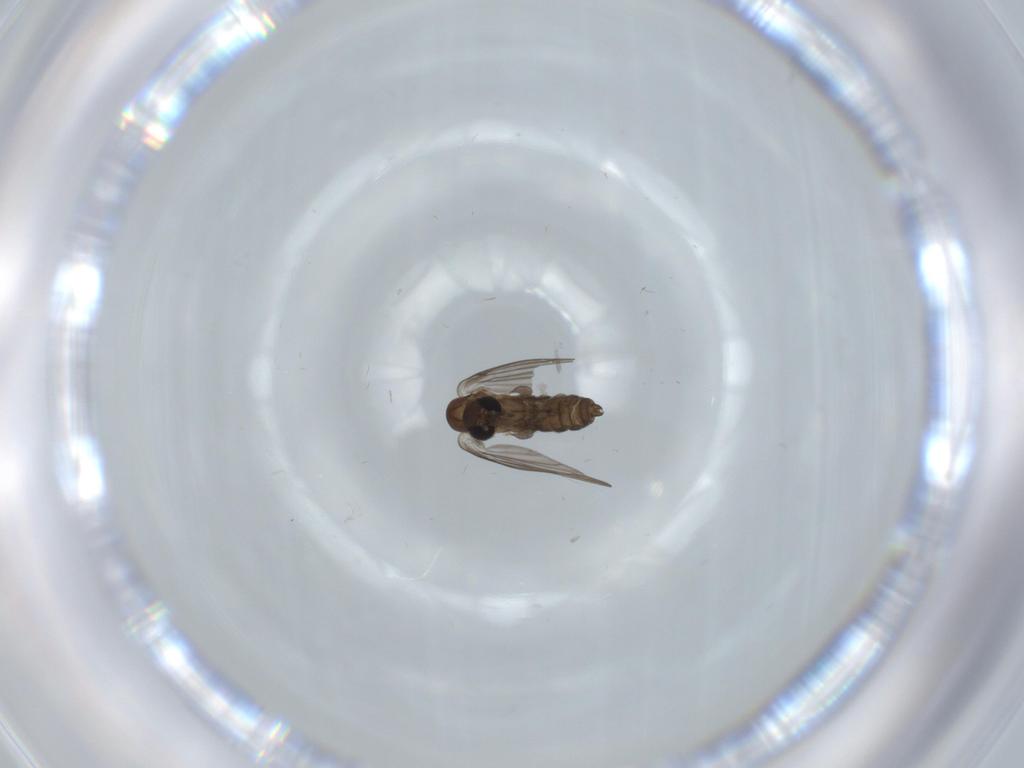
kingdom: Animalia
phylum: Arthropoda
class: Insecta
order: Diptera
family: Psychodidae
